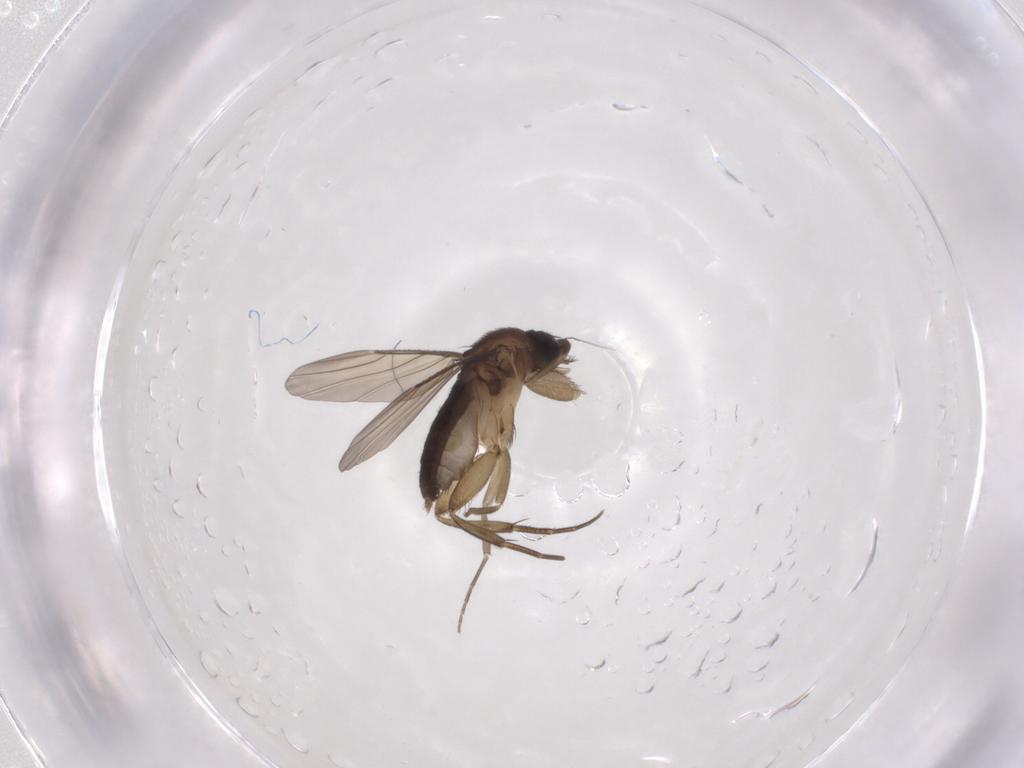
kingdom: Animalia
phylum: Arthropoda
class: Insecta
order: Diptera
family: Phoridae
